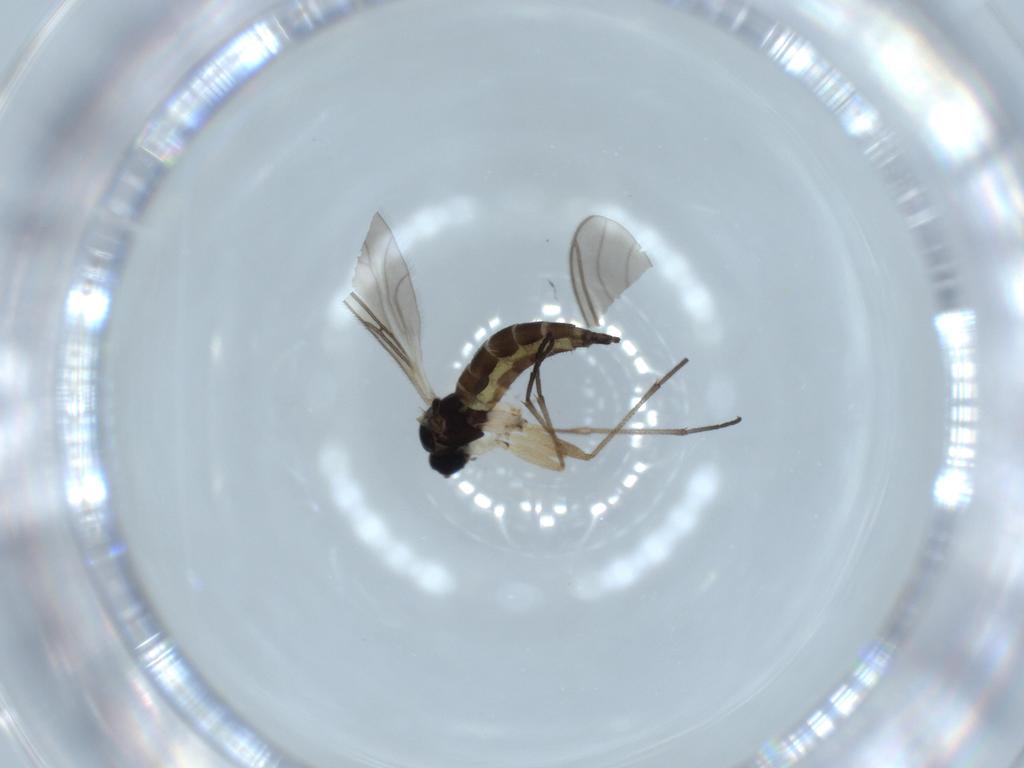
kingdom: Animalia
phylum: Arthropoda
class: Insecta
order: Diptera
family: Sciaridae
